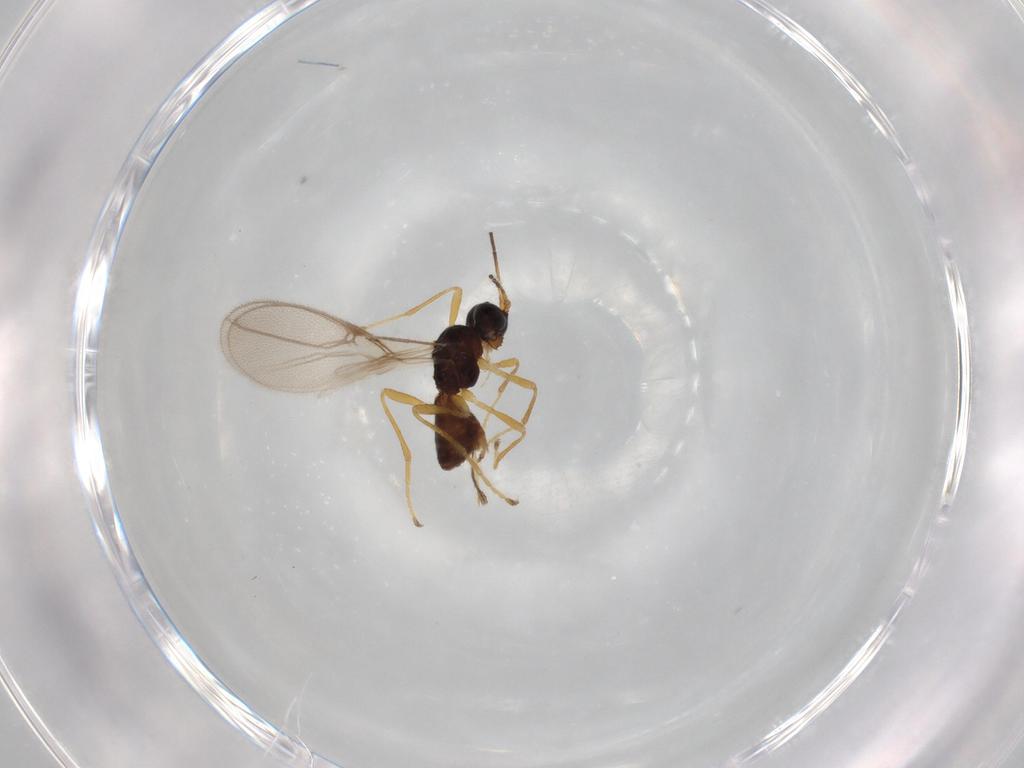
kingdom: Animalia
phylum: Arthropoda
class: Insecta
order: Hymenoptera
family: Braconidae
